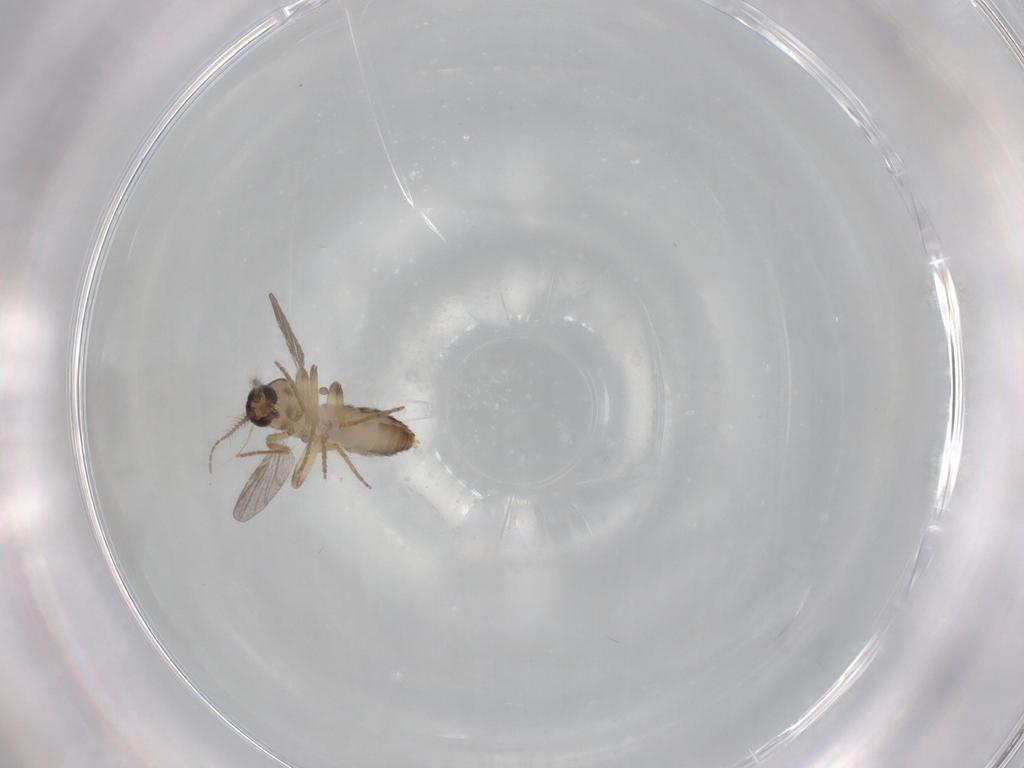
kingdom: Animalia
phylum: Arthropoda
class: Insecta
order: Diptera
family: Ceratopogonidae
